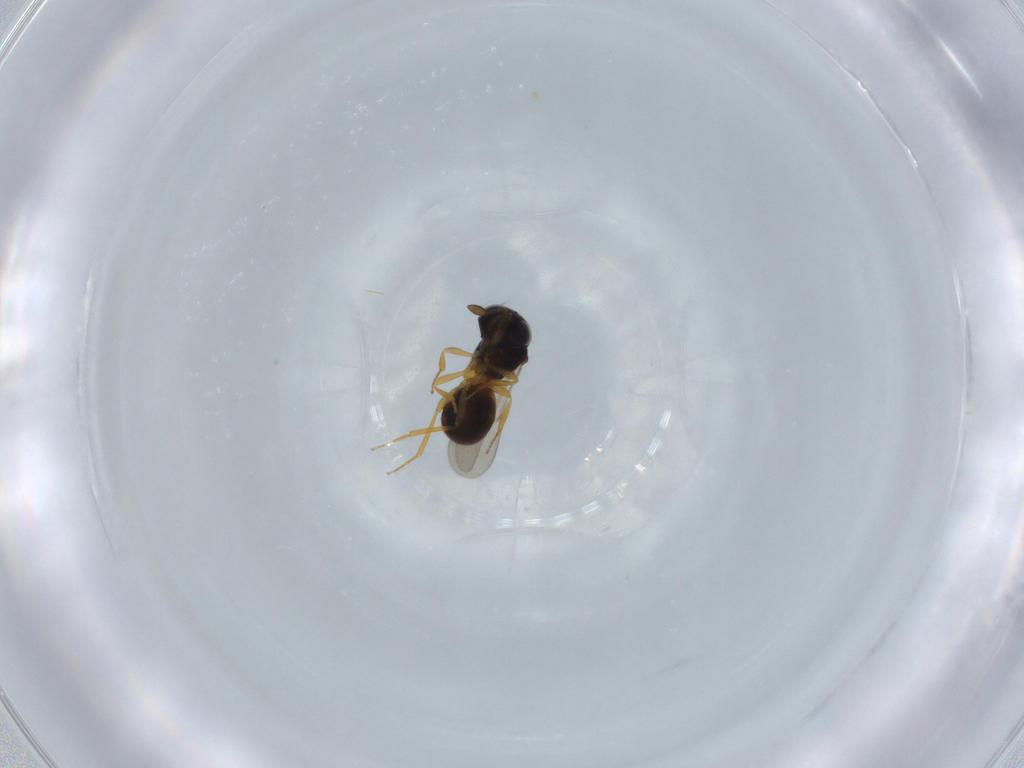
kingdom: Animalia
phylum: Arthropoda
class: Insecta
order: Hymenoptera
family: Scelionidae
